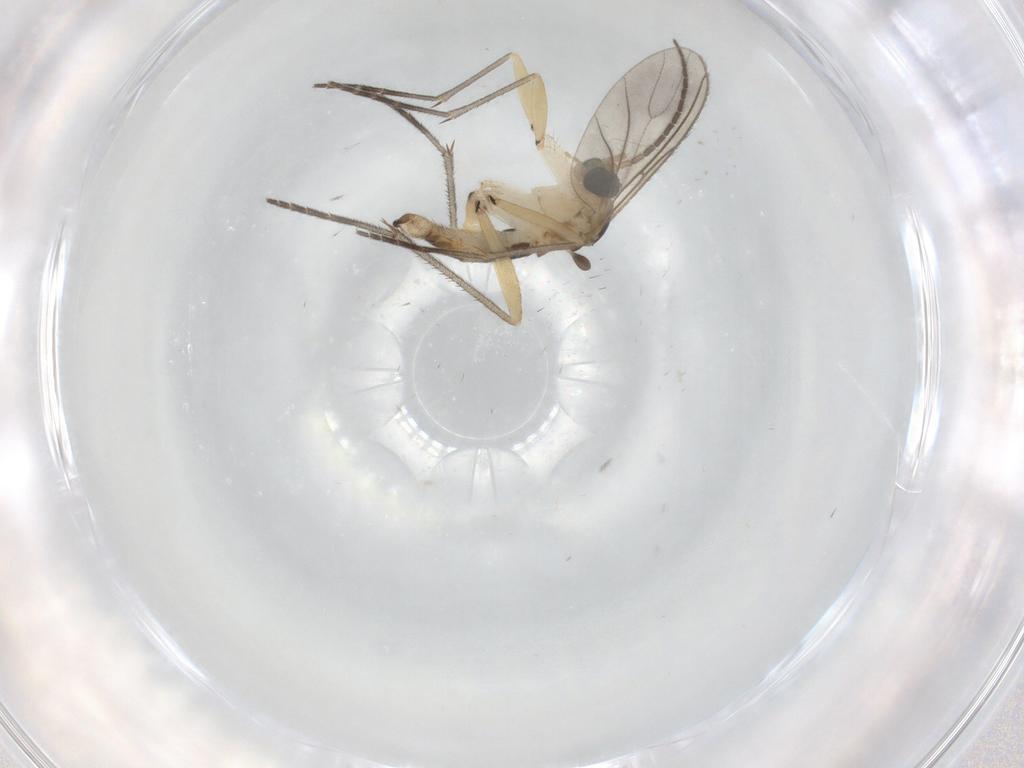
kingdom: Animalia
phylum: Arthropoda
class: Insecta
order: Diptera
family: Sciaridae
